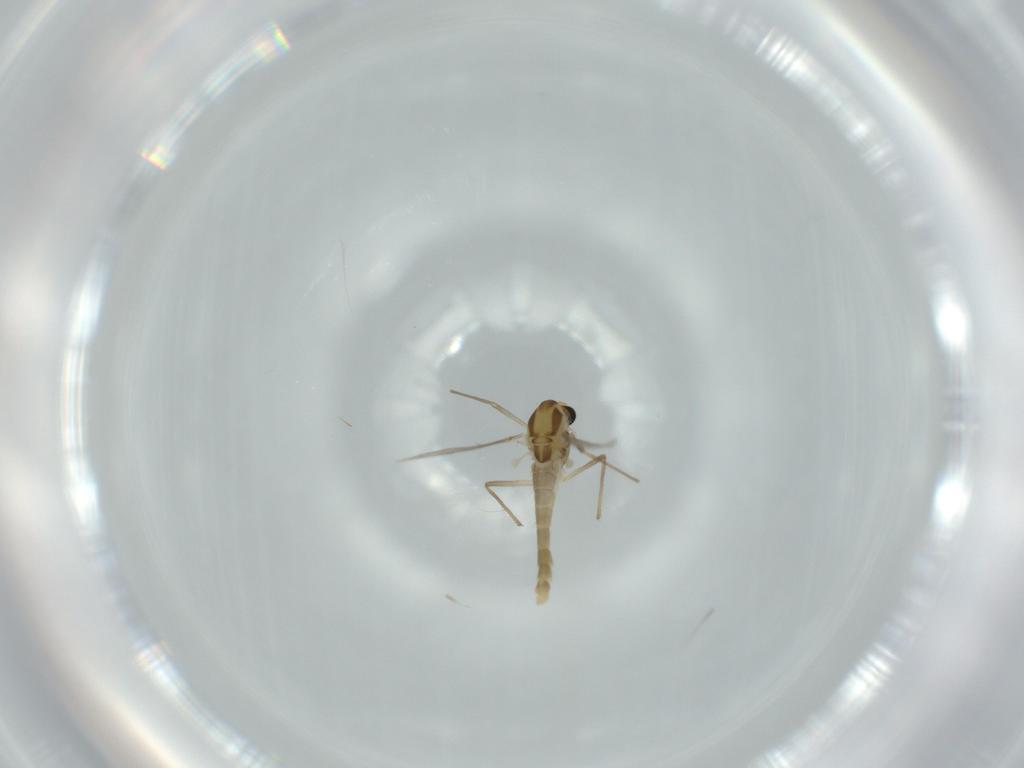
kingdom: Animalia
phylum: Arthropoda
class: Insecta
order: Diptera
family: Chironomidae
